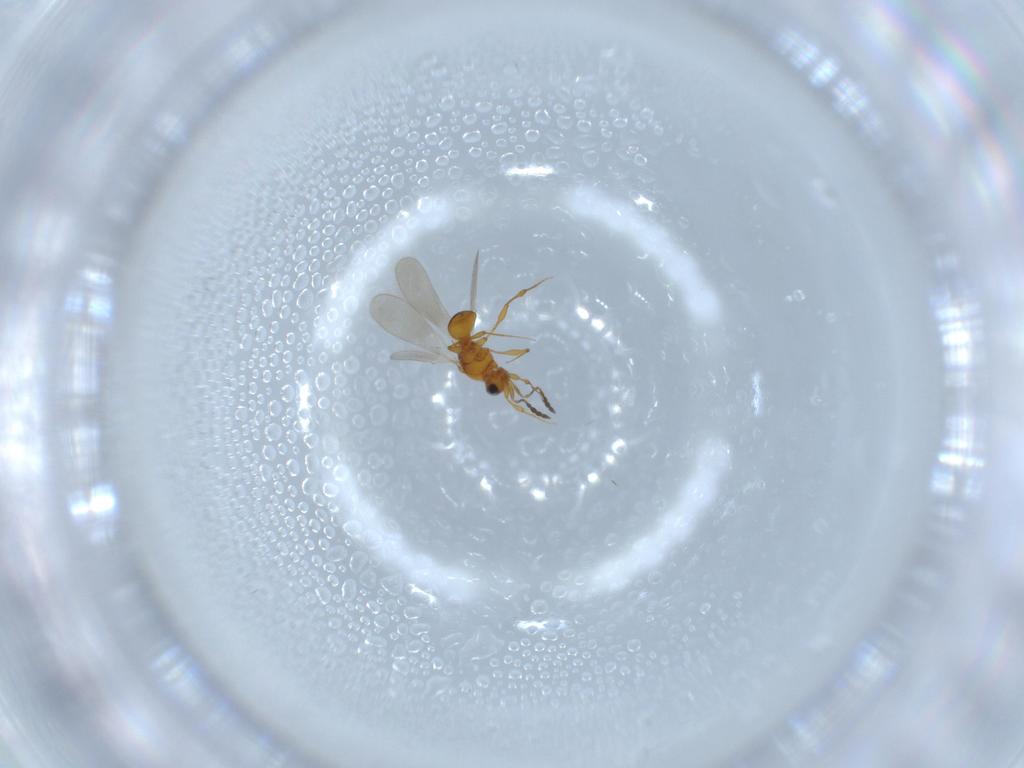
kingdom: Animalia
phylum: Arthropoda
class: Insecta
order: Hymenoptera
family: Platygastridae
